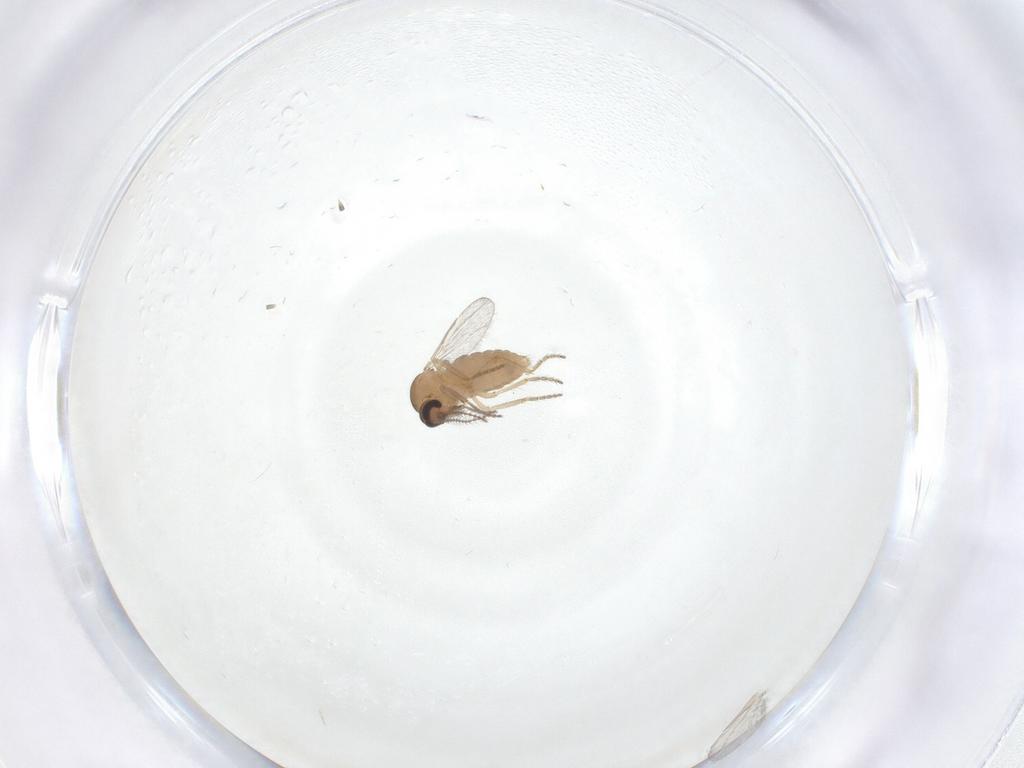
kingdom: Animalia
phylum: Arthropoda
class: Insecta
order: Diptera
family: Ceratopogonidae
